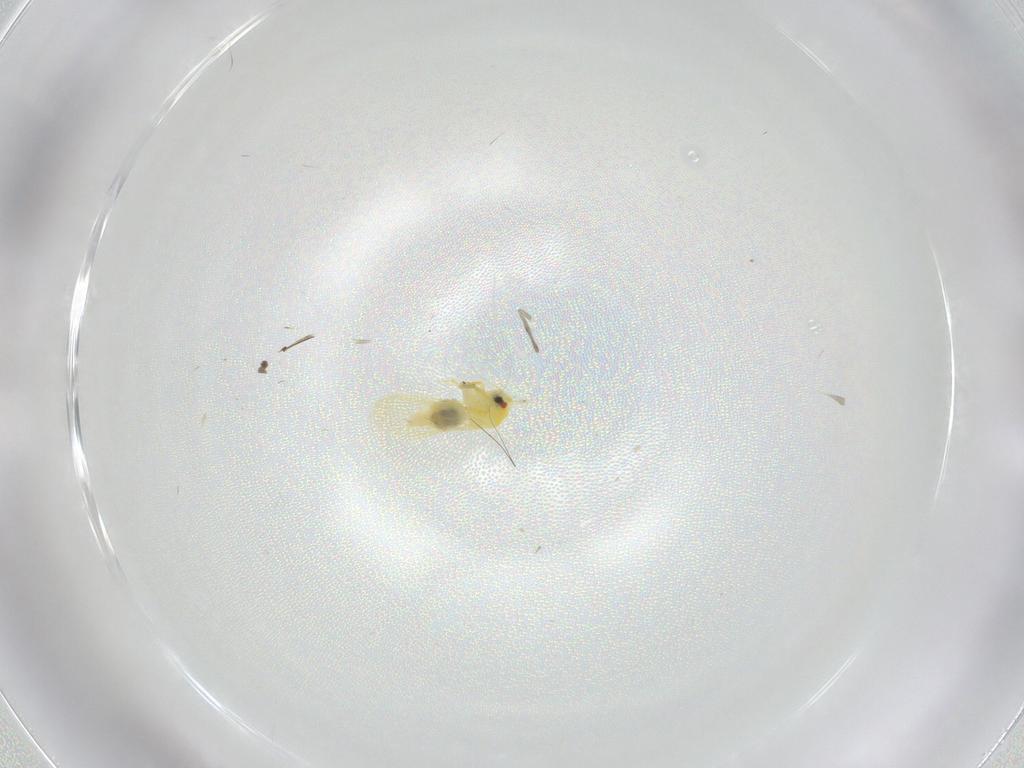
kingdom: Animalia
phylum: Arthropoda
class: Insecta
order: Hemiptera
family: Aleyrodidae
